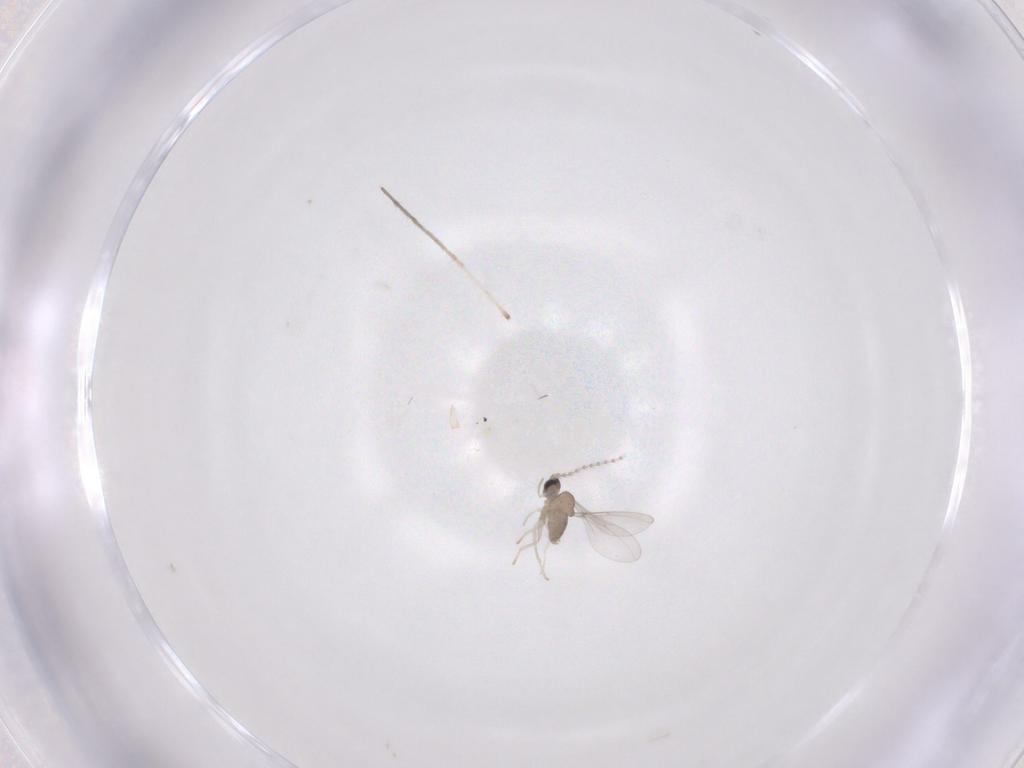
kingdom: Animalia
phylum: Arthropoda
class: Insecta
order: Diptera
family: Cecidomyiidae
